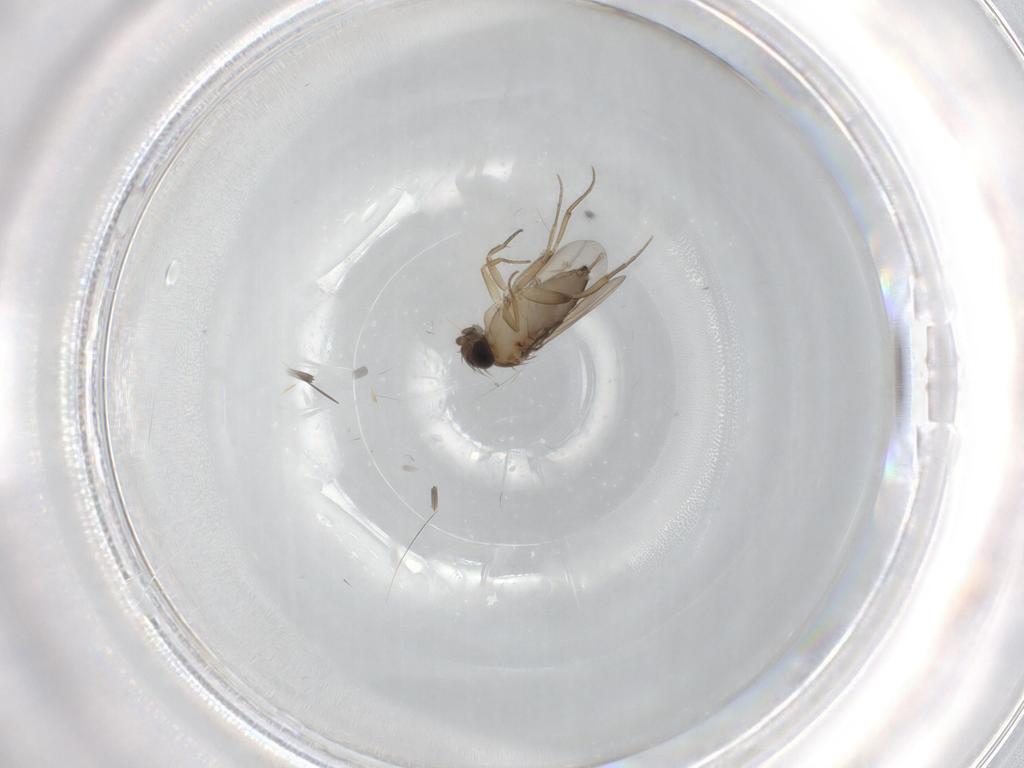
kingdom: Animalia
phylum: Arthropoda
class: Insecta
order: Diptera
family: Phoridae
